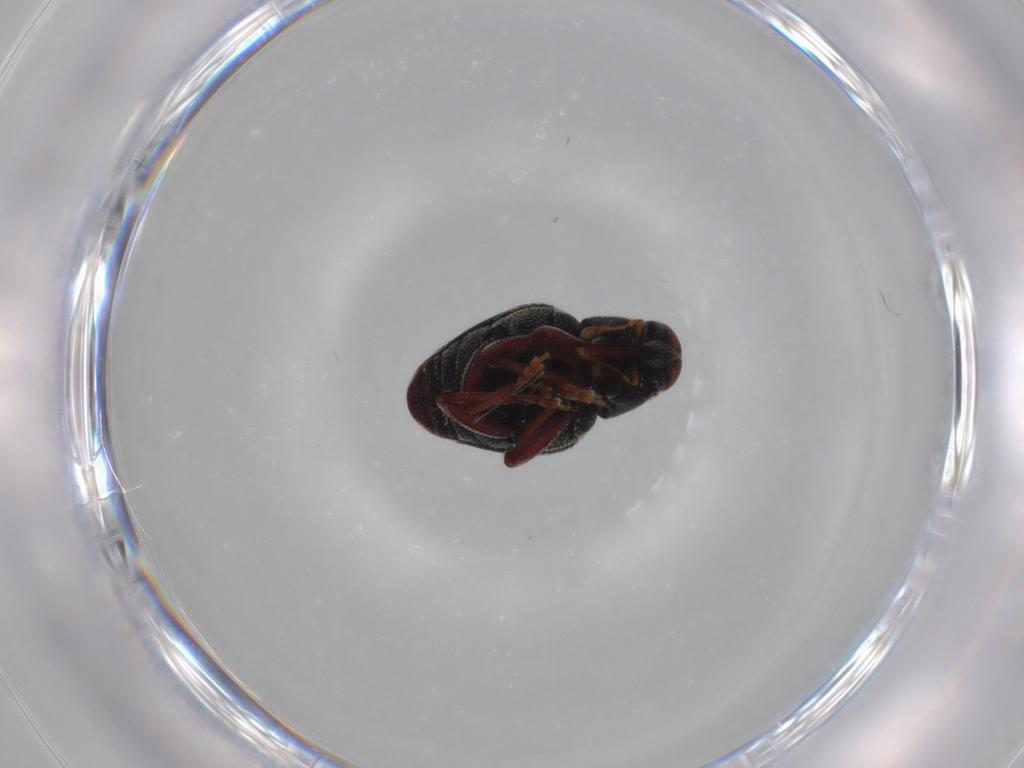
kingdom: Animalia
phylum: Arthropoda
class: Insecta
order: Coleoptera
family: Curculionidae
